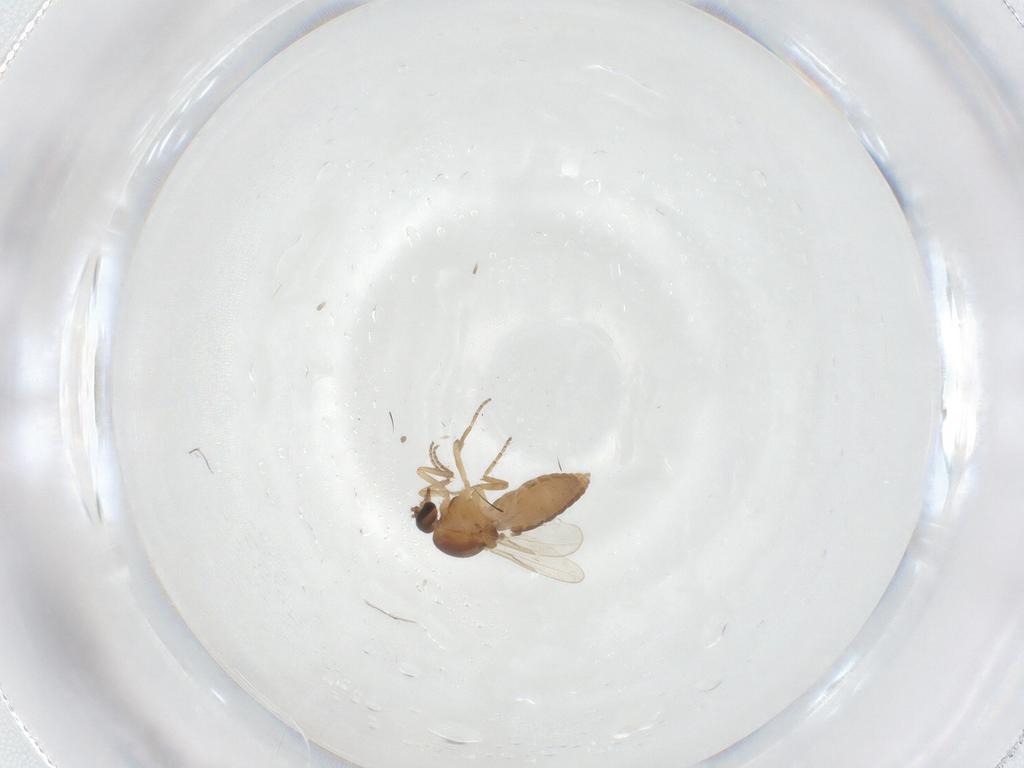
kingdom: Animalia
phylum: Arthropoda
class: Insecta
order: Diptera
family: Ceratopogonidae
